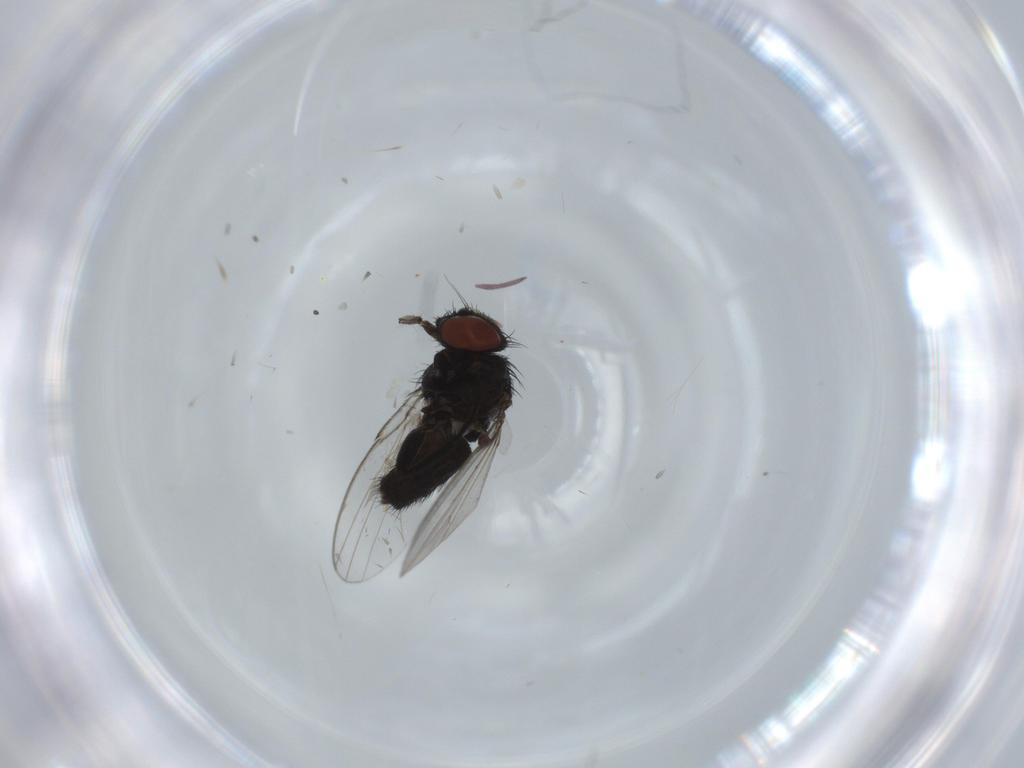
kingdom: Animalia
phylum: Arthropoda
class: Insecta
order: Diptera
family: Milichiidae
